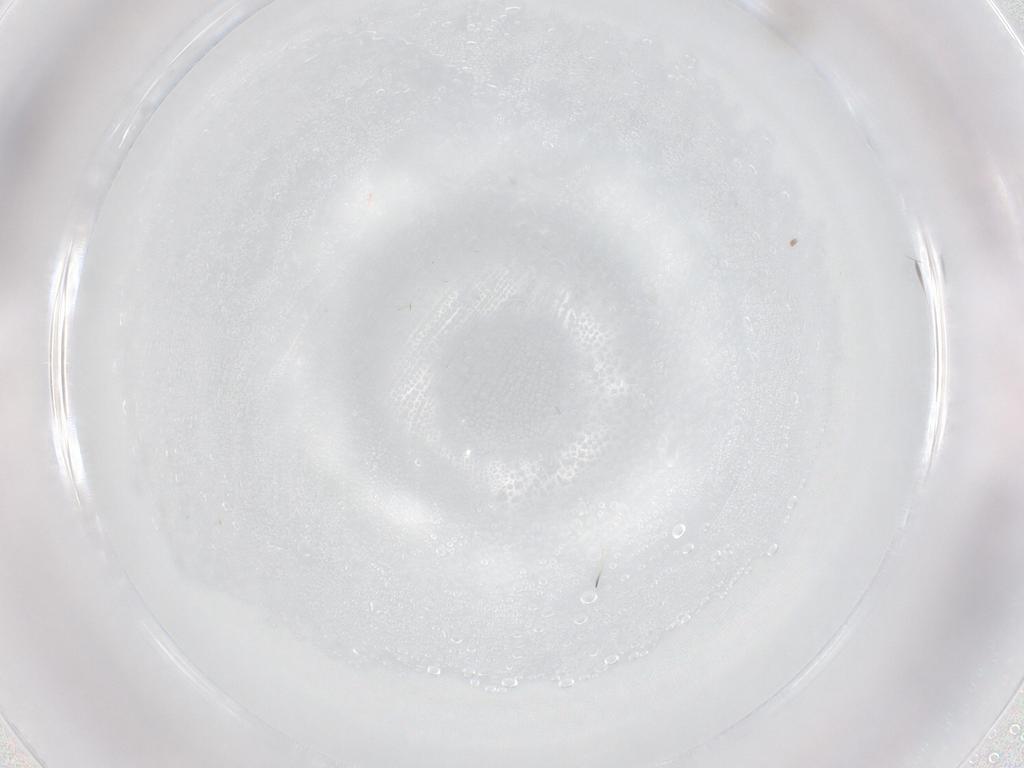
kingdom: Animalia
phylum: Arthropoda
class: Insecta
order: Hymenoptera
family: Trichogrammatidae
